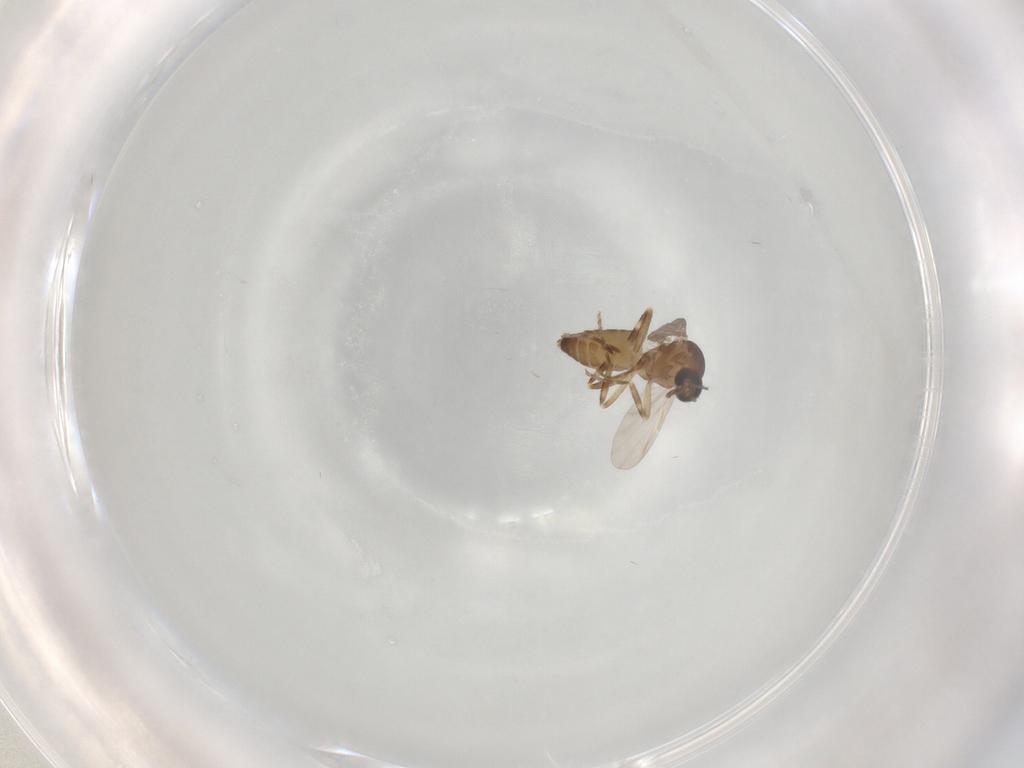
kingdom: Animalia
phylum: Arthropoda
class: Insecta
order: Diptera
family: Ceratopogonidae
